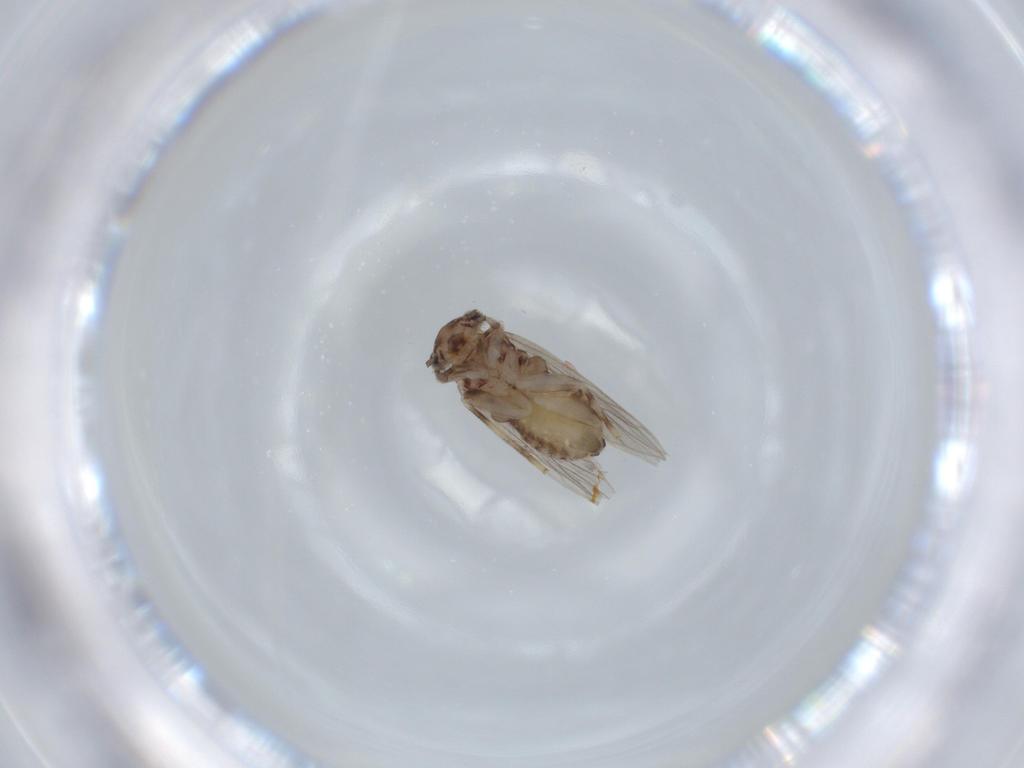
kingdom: Animalia
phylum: Arthropoda
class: Insecta
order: Psocodea
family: Lepidopsocidae
